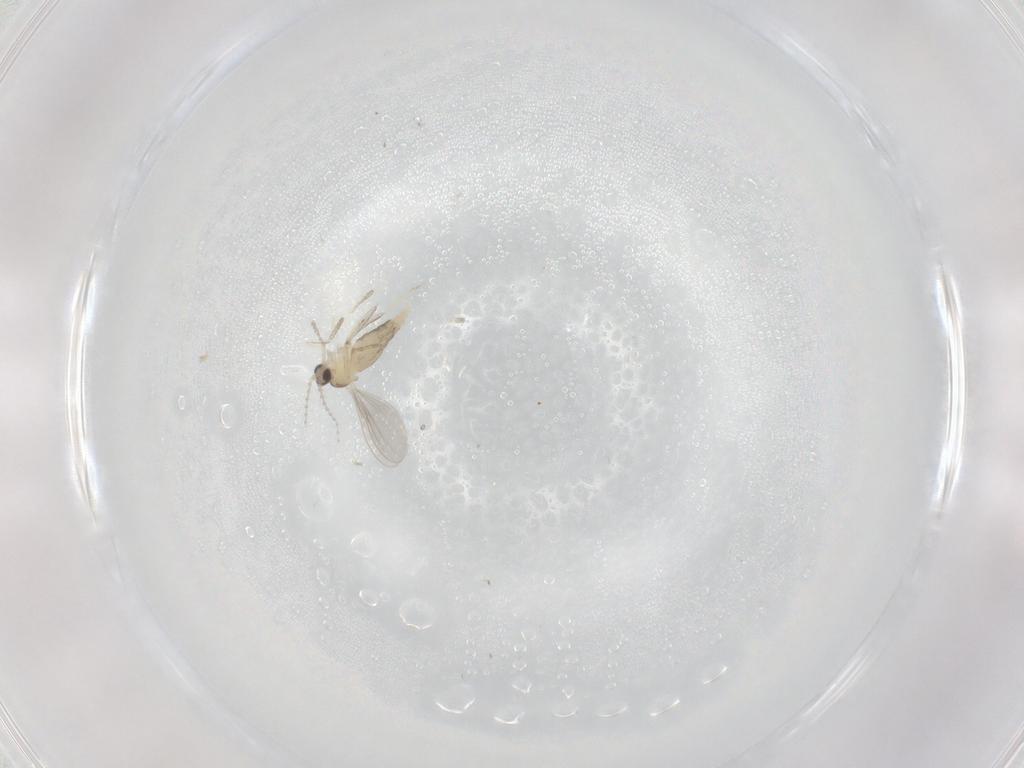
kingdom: Animalia
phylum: Arthropoda
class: Insecta
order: Diptera
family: Cecidomyiidae
